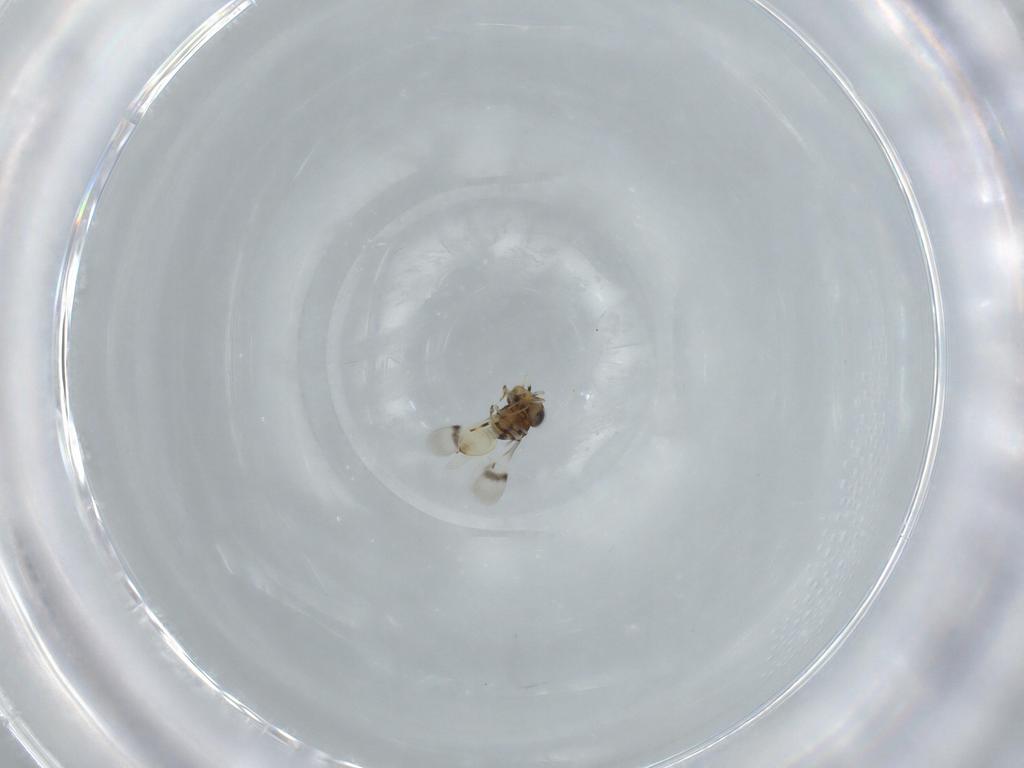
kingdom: Animalia
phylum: Arthropoda
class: Insecta
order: Hymenoptera
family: Scelionidae
